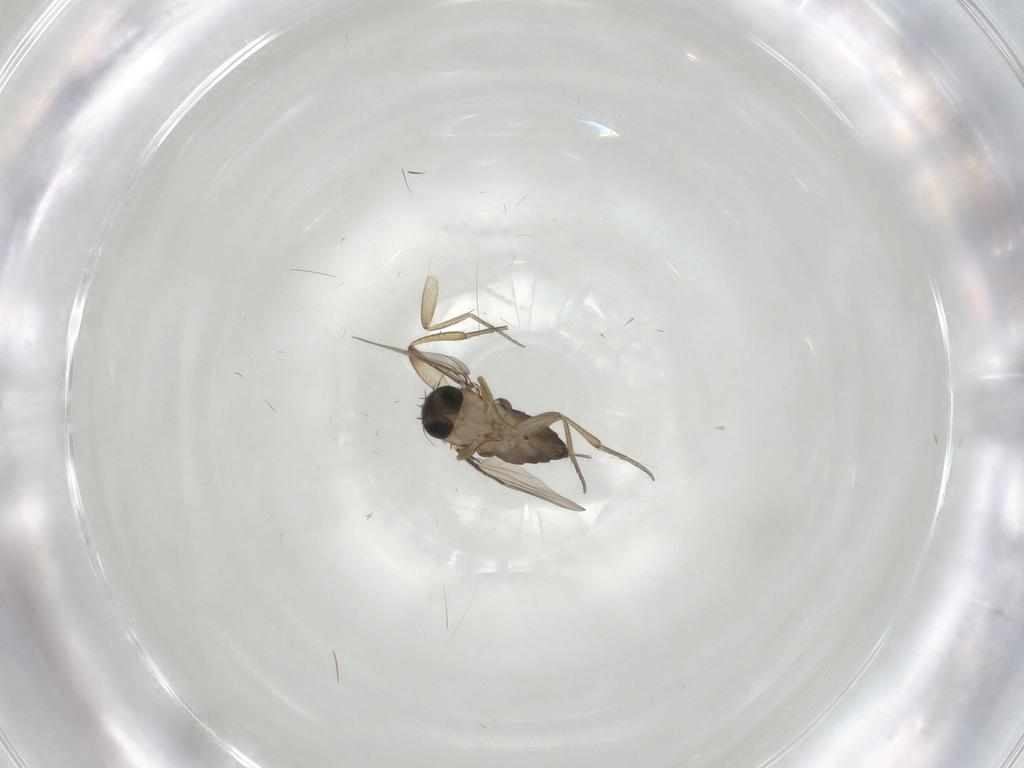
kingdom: Animalia
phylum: Arthropoda
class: Insecta
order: Diptera
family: Phoridae
